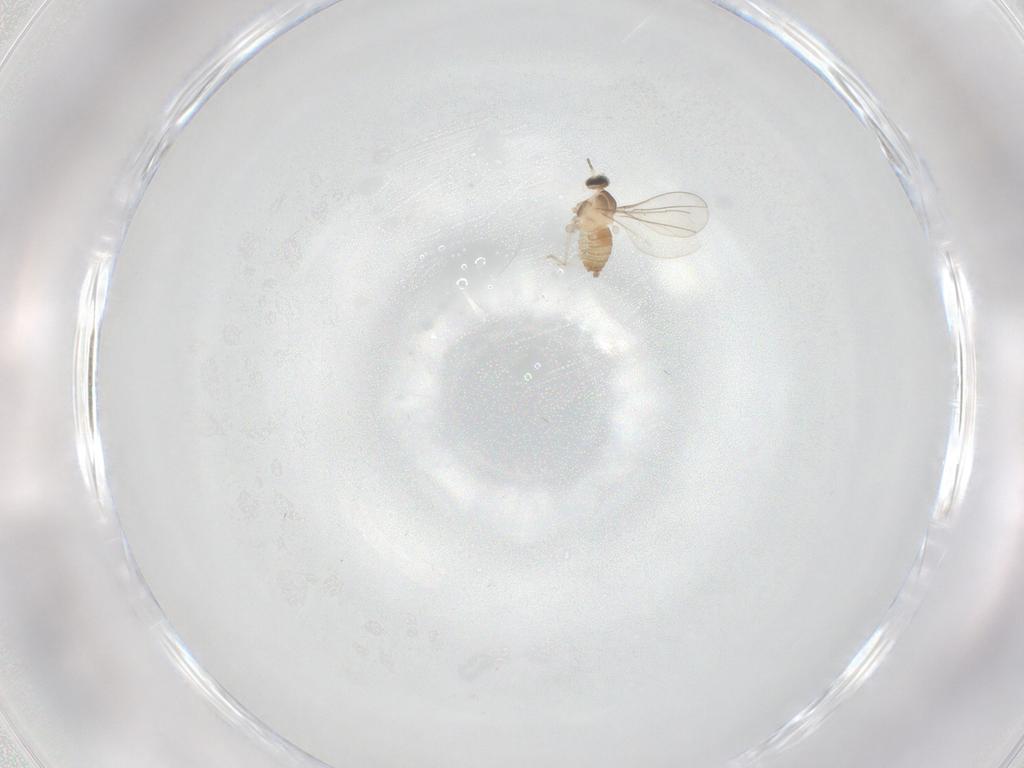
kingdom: Animalia
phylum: Arthropoda
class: Insecta
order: Diptera
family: Cecidomyiidae
